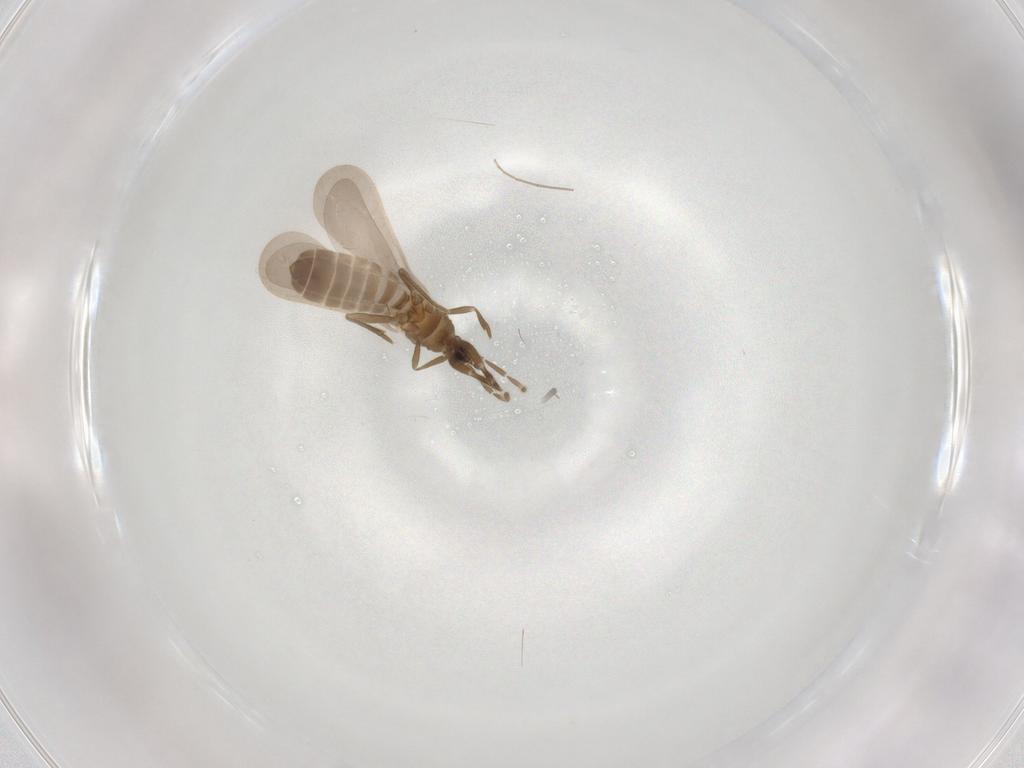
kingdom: Animalia
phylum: Arthropoda
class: Insecta
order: Hemiptera
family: Enicocephalidae
